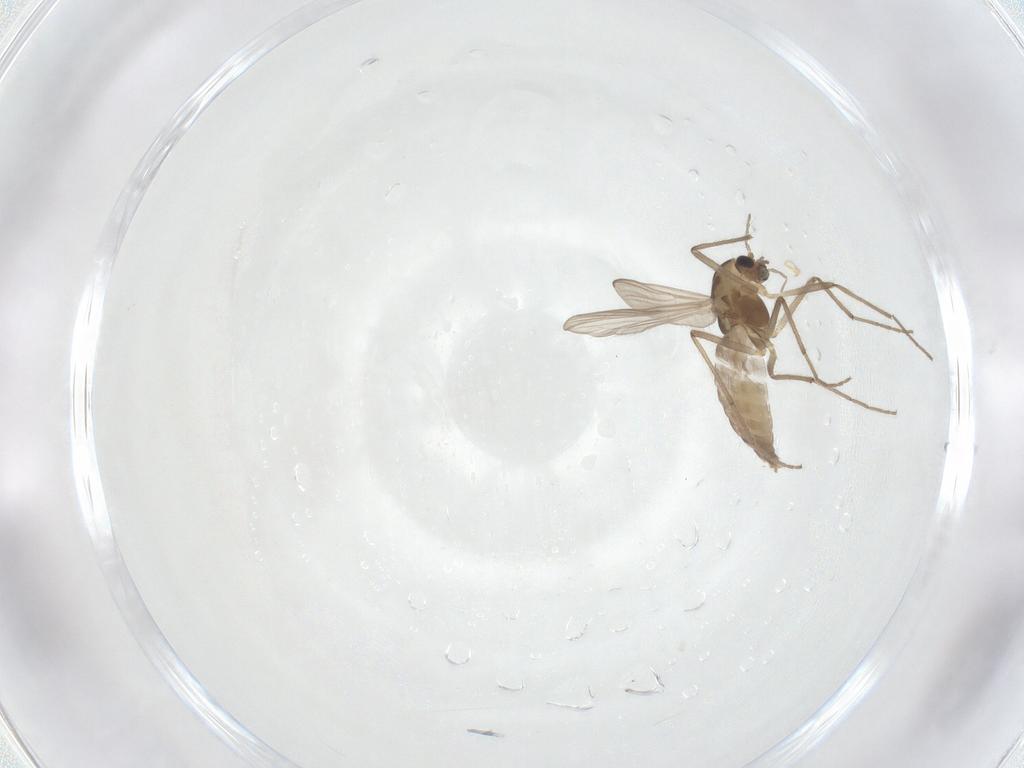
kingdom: Animalia
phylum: Arthropoda
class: Insecta
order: Diptera
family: Chironomidae
